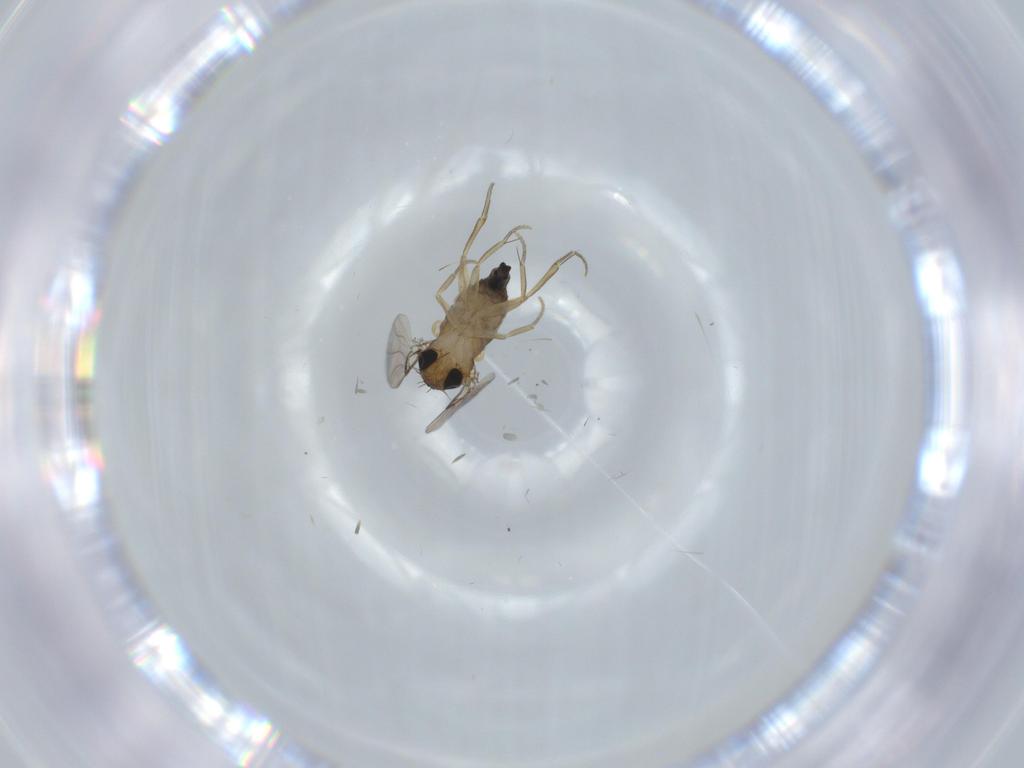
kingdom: Animalia
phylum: Arthropoda
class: Insecta
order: Diptera
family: Phoridae
